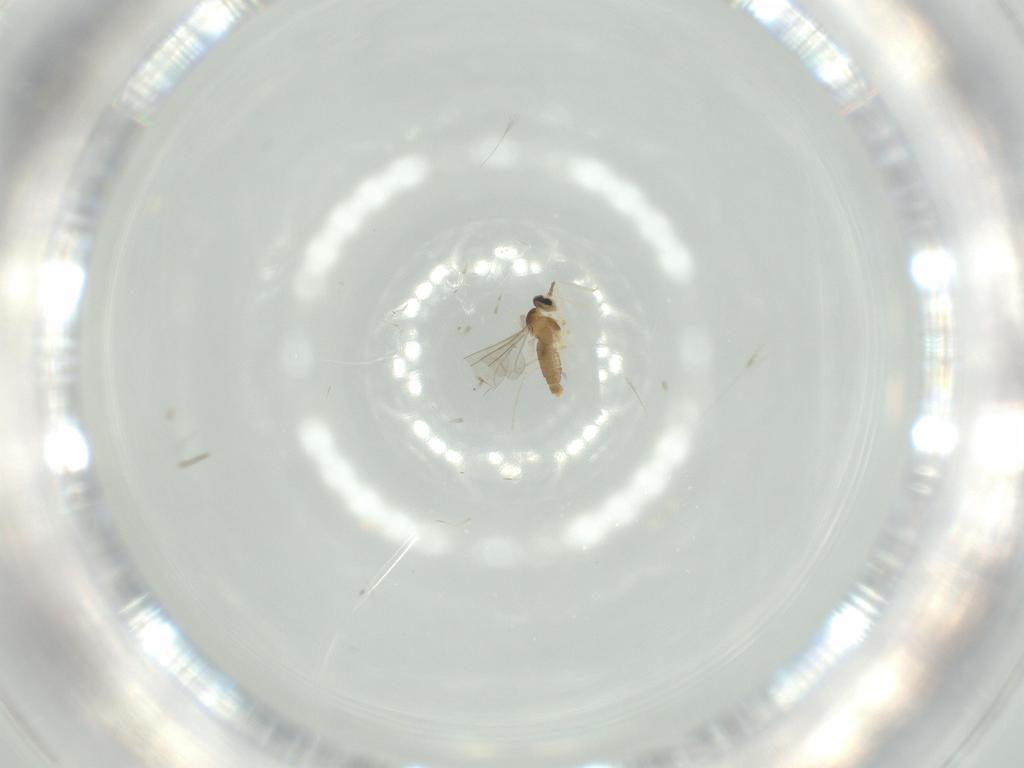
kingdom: Animalia
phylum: Arthropoda
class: Insecta
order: Diptera
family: Cecidomyiidae
